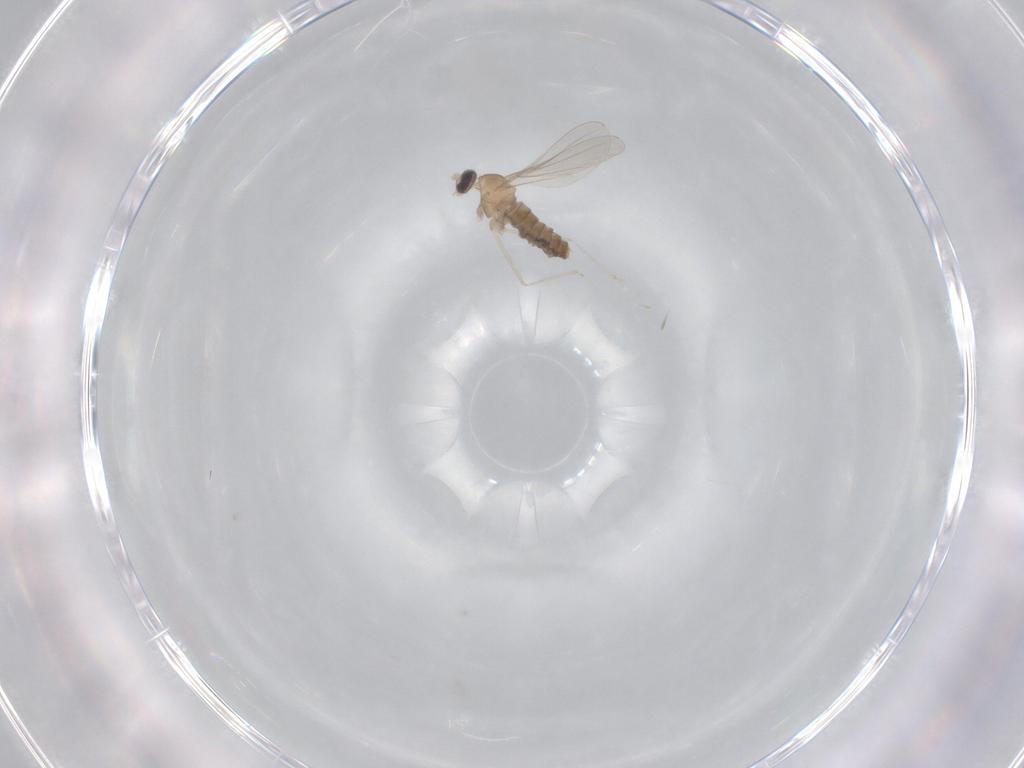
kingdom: Animalia
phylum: Arthropoda
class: Insecta
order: Diptera
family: Cecidomyiidae
